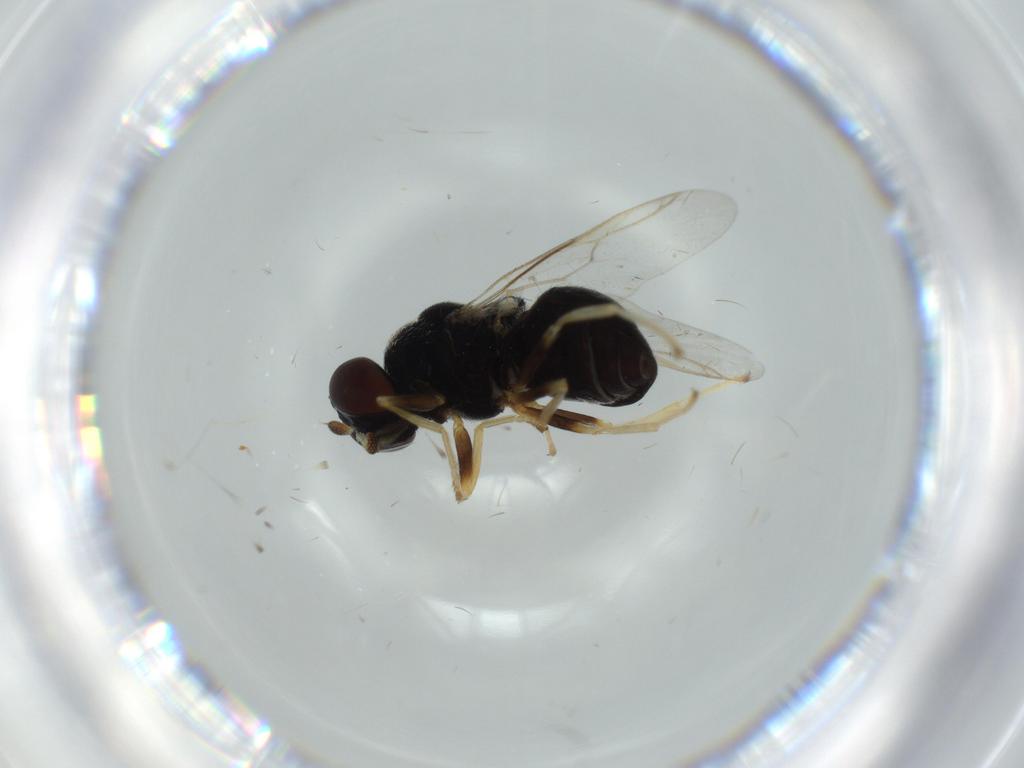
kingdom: Animalia
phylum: Arthropoda
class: Insecta
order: Diptera
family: Stratiomyidae
